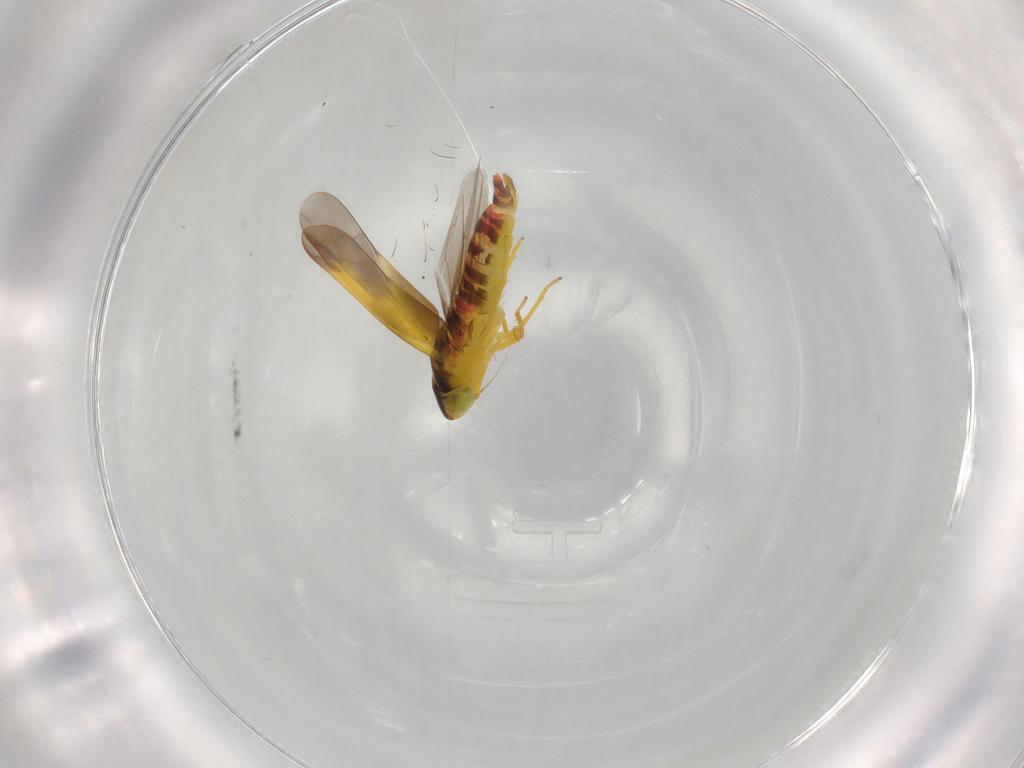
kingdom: Animalia
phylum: Arthropoda
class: Insecta
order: Hemiptera
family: Cicadellidae
